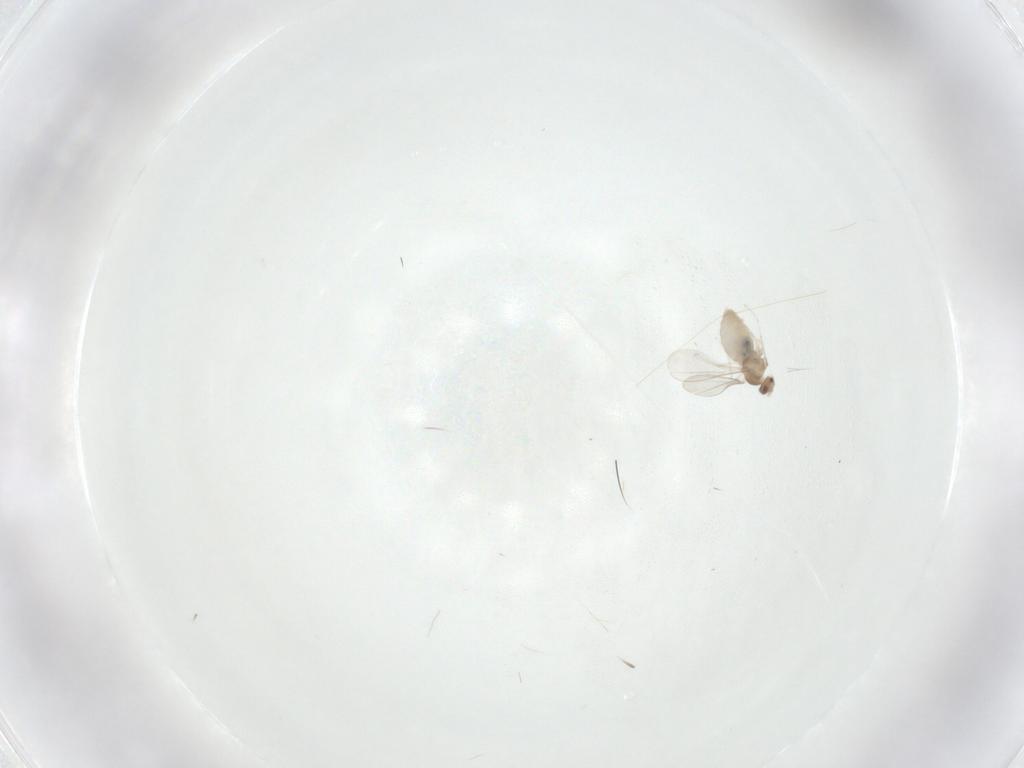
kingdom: Animalia
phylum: Arthropoda
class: Insecta
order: Diptera
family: Cecidomyiidae
